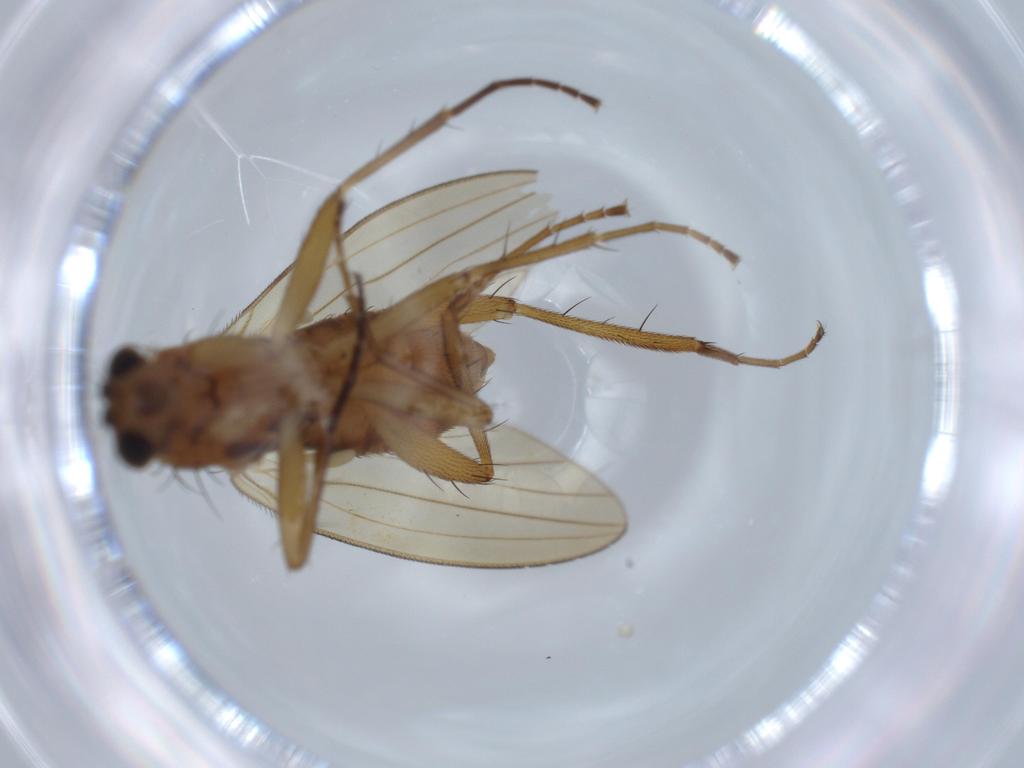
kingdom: Animalia
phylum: Arthropoda
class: Insecta
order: Diptera
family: Lonchopteridae
